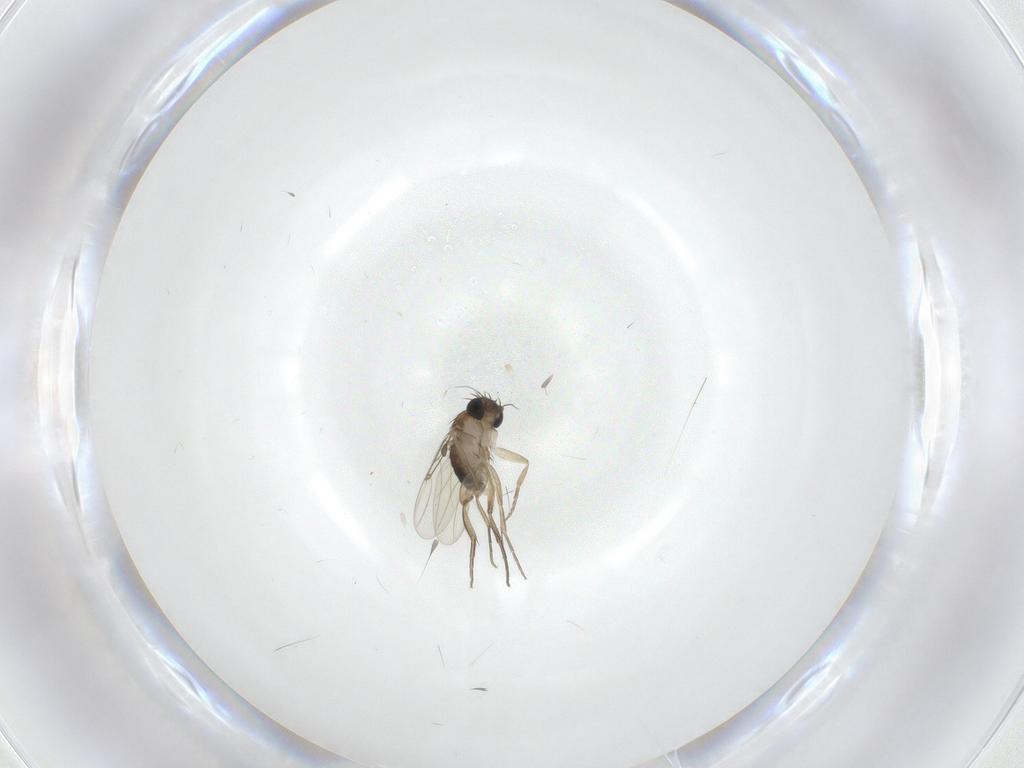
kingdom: Animalia
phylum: Arthropoda
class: Insecta
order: Diptera
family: Phoridae
